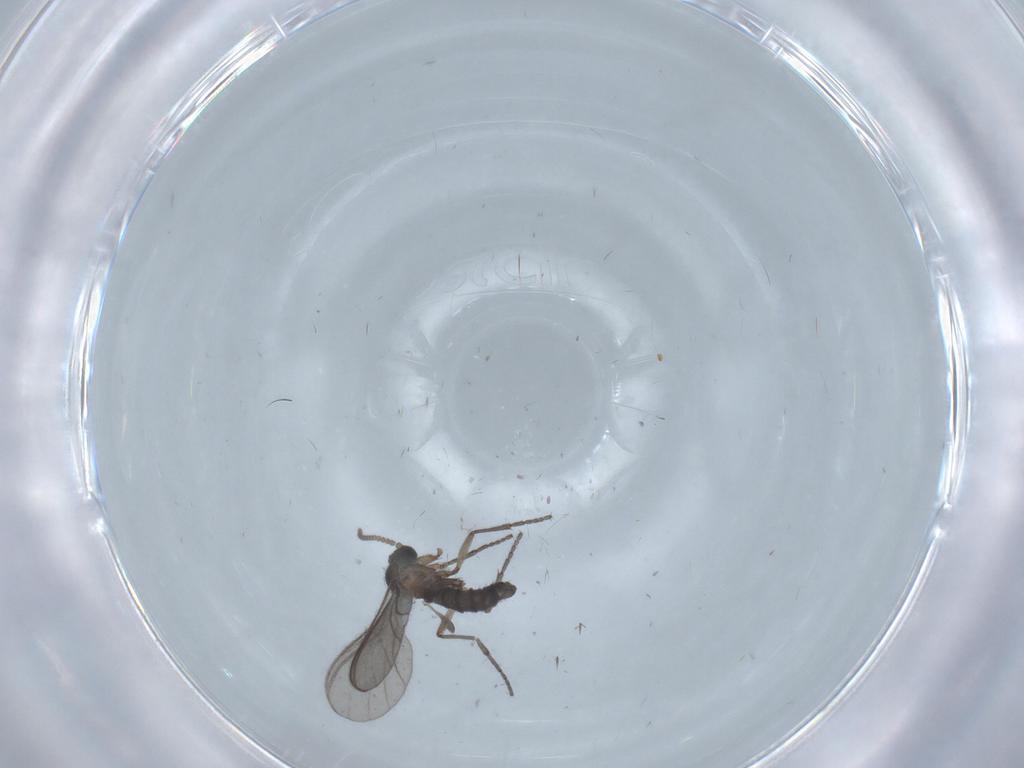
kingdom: Animalia
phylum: Arthropoda
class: Insecta
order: Diptera
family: Sciaridae
